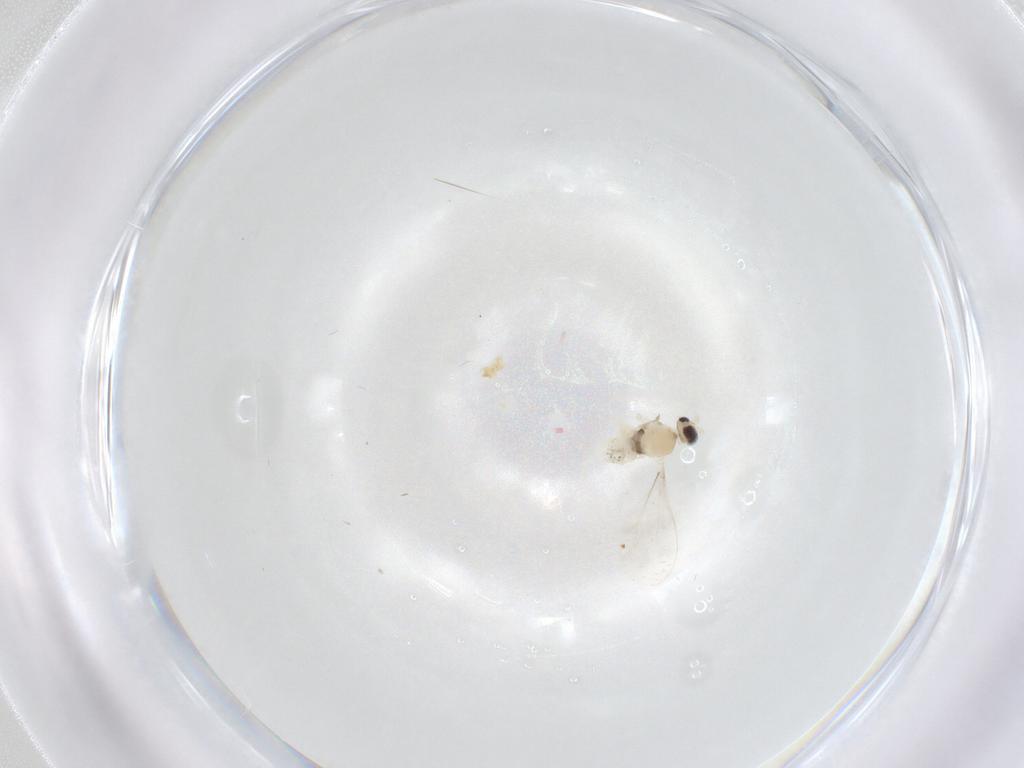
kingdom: Animalia
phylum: Arthropoda
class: Insecta
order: Diptera
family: Cecidomyiidae
